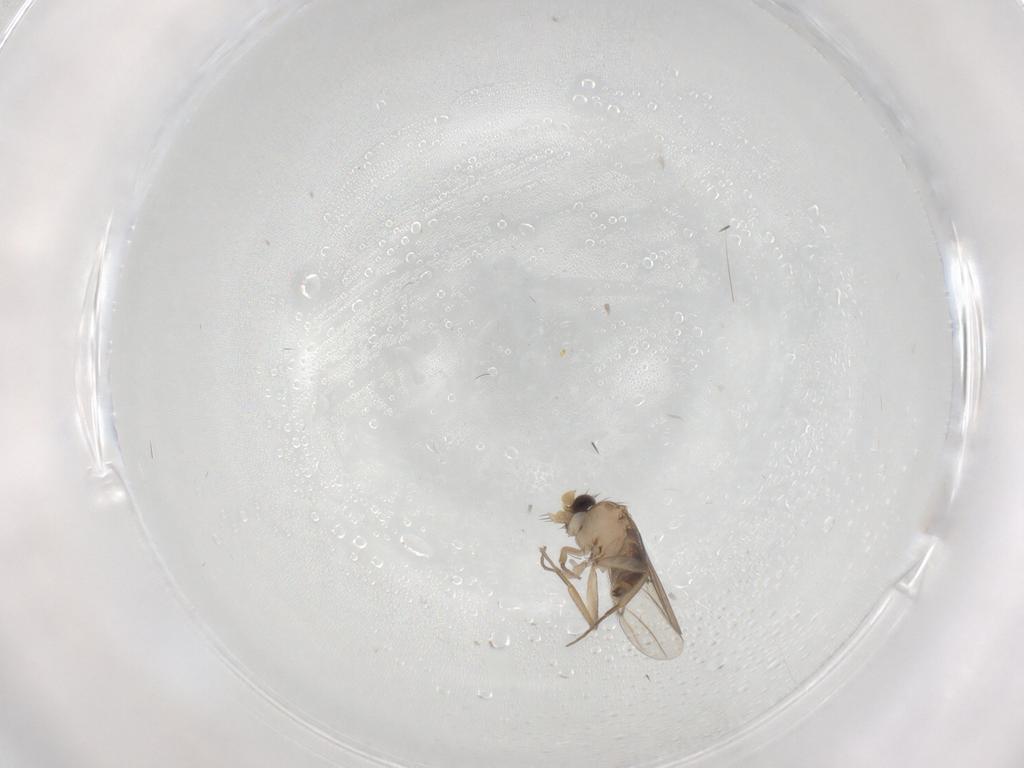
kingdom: Animalia
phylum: Arthropoda
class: Insecta
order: Diptera
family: Phoridae
